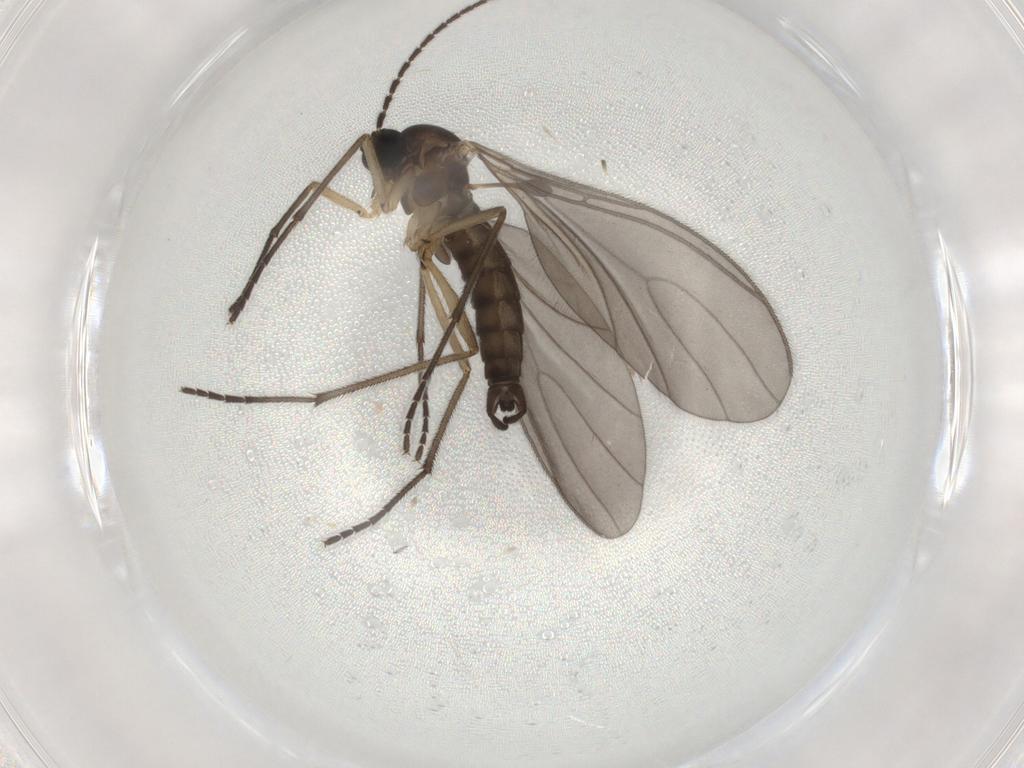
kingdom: Animalia
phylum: Arthropoda
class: Insecta
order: Diptera
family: Sciaridae
